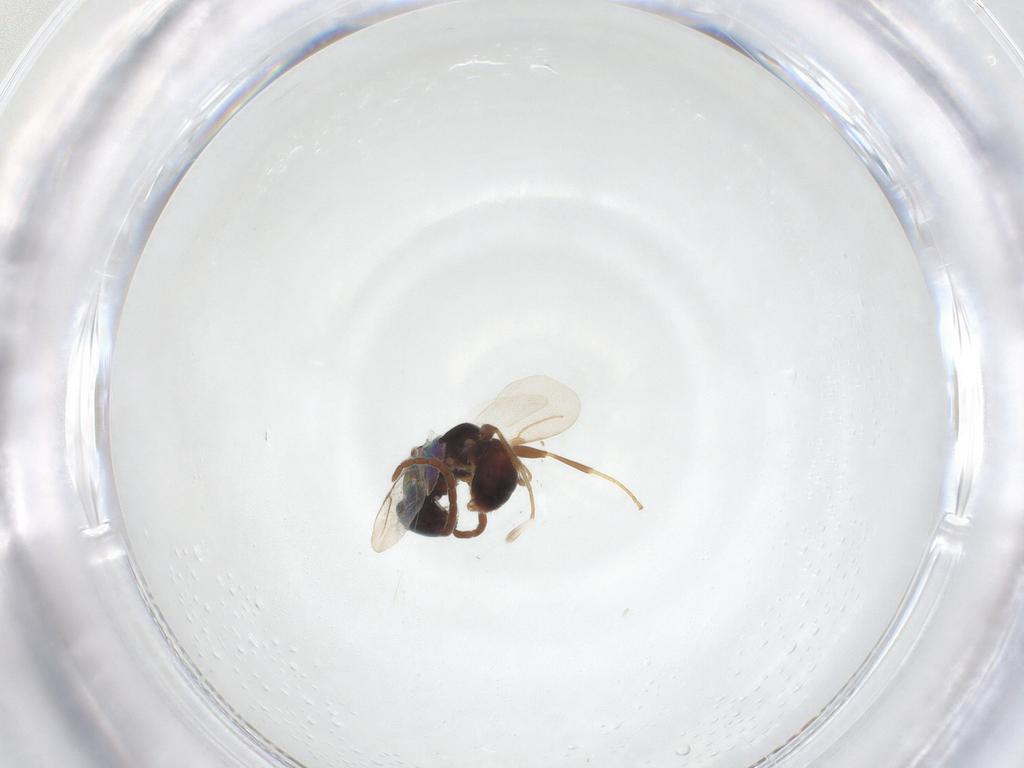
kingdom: Animalia
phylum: Arthropoda
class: Insecta
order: Hymenoptera
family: Bethylidae
